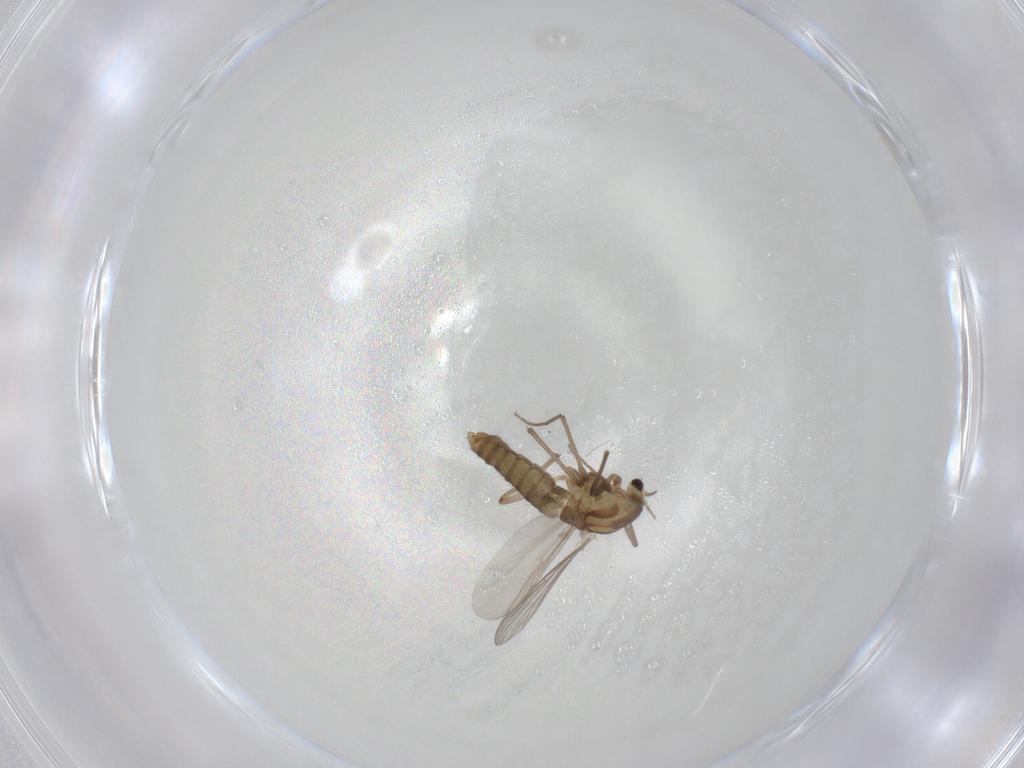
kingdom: Animalia
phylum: Arthropoda
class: Insecta
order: Diptera
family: Chironomidae
